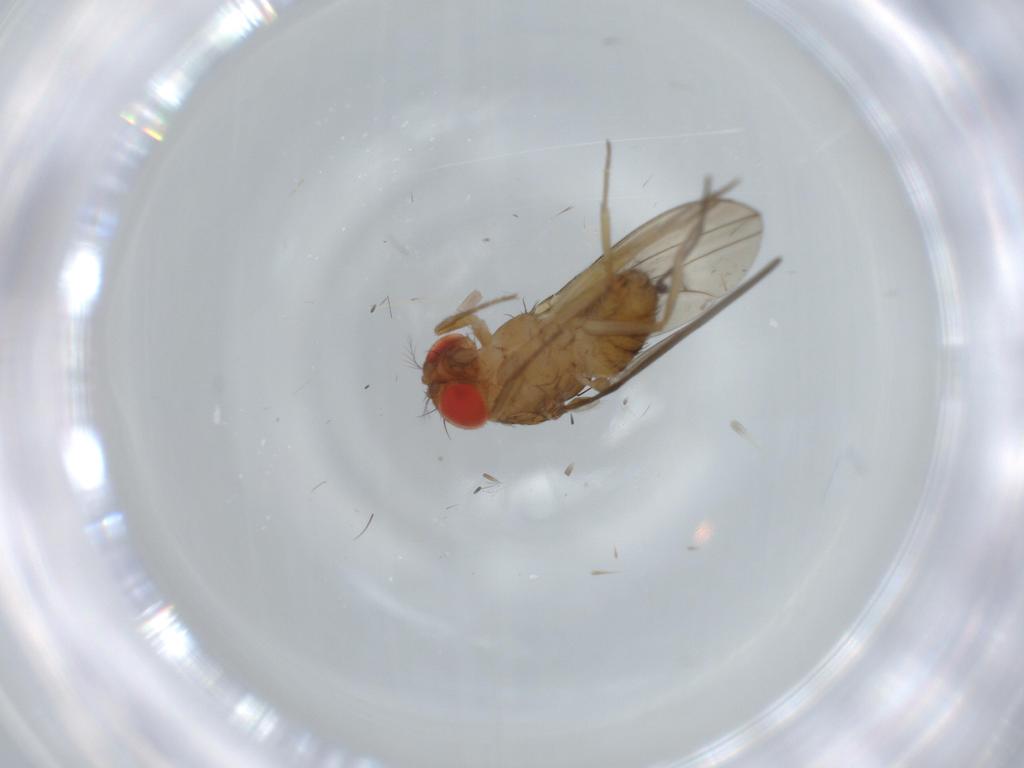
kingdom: Animalia
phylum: Arthropoda
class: Insecta
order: Diptera
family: Drosophilidae
